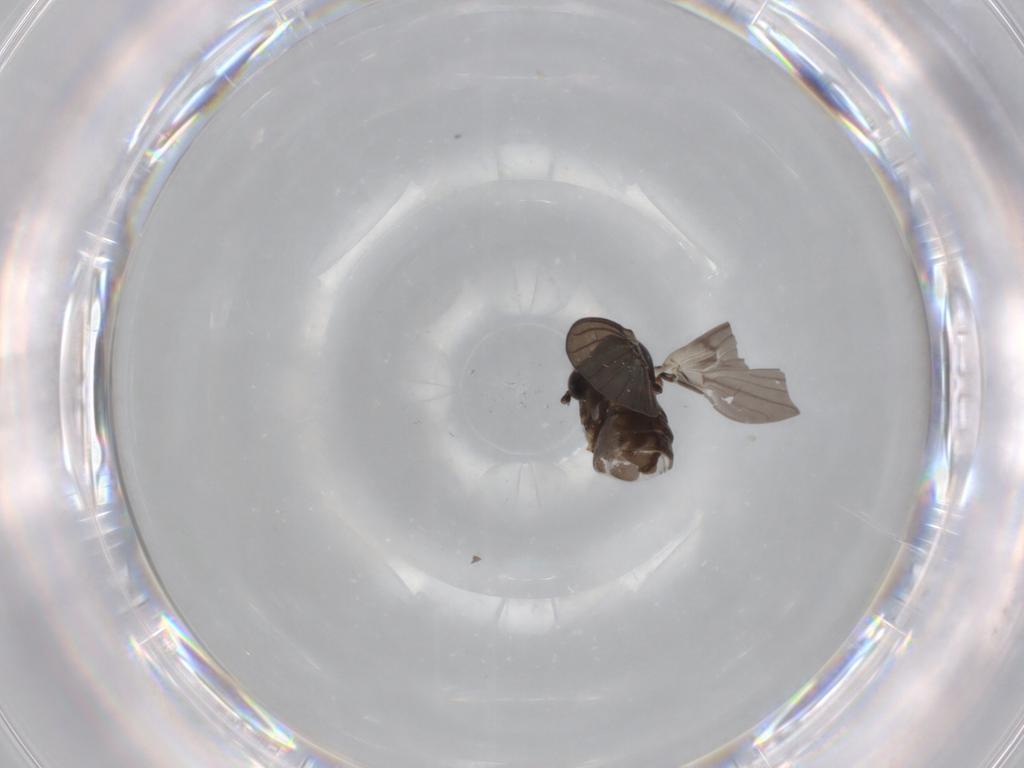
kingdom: Animalia
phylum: Arthropoda
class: Insecta
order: Diptera
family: Psychodidae
